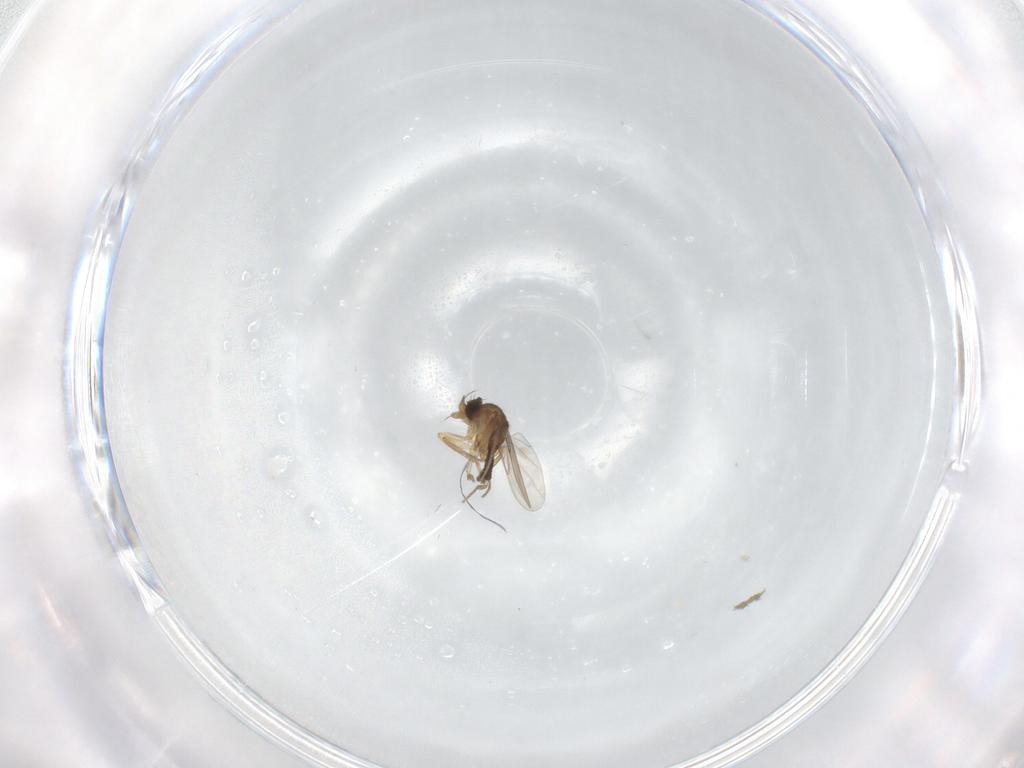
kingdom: Animalia
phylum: Arthropoda
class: Insecta
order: Diptera
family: Phoridae
